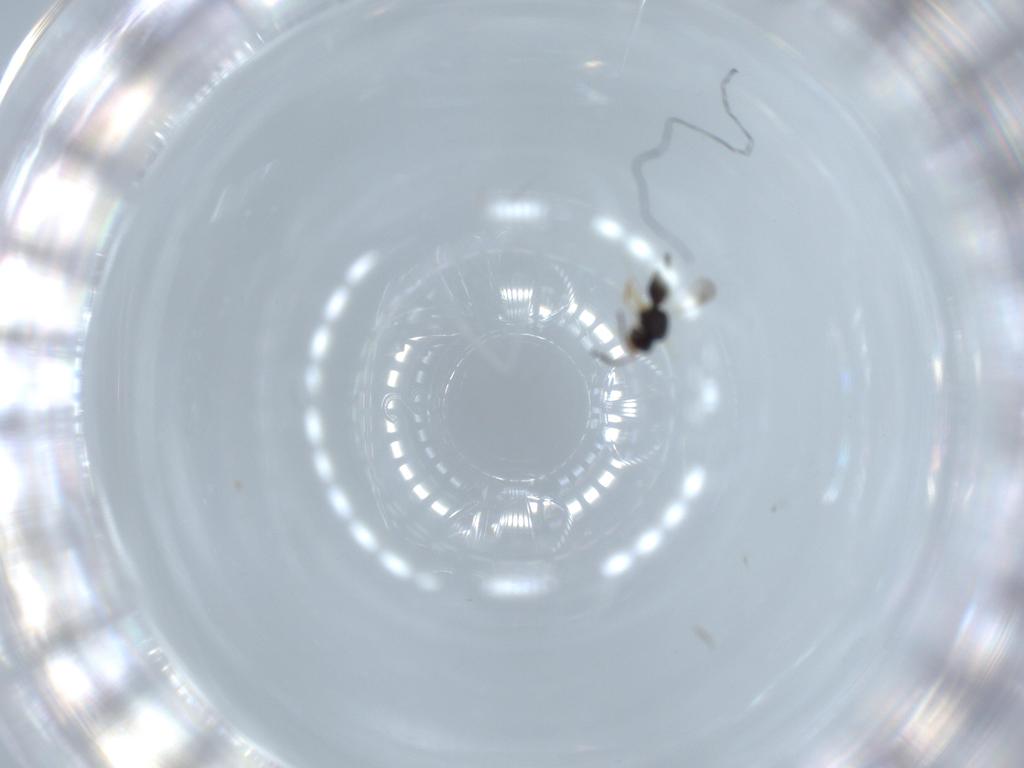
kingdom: Animalia
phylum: Arthropoda
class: Insecta
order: Hymenoptera
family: Ceraphronidae
